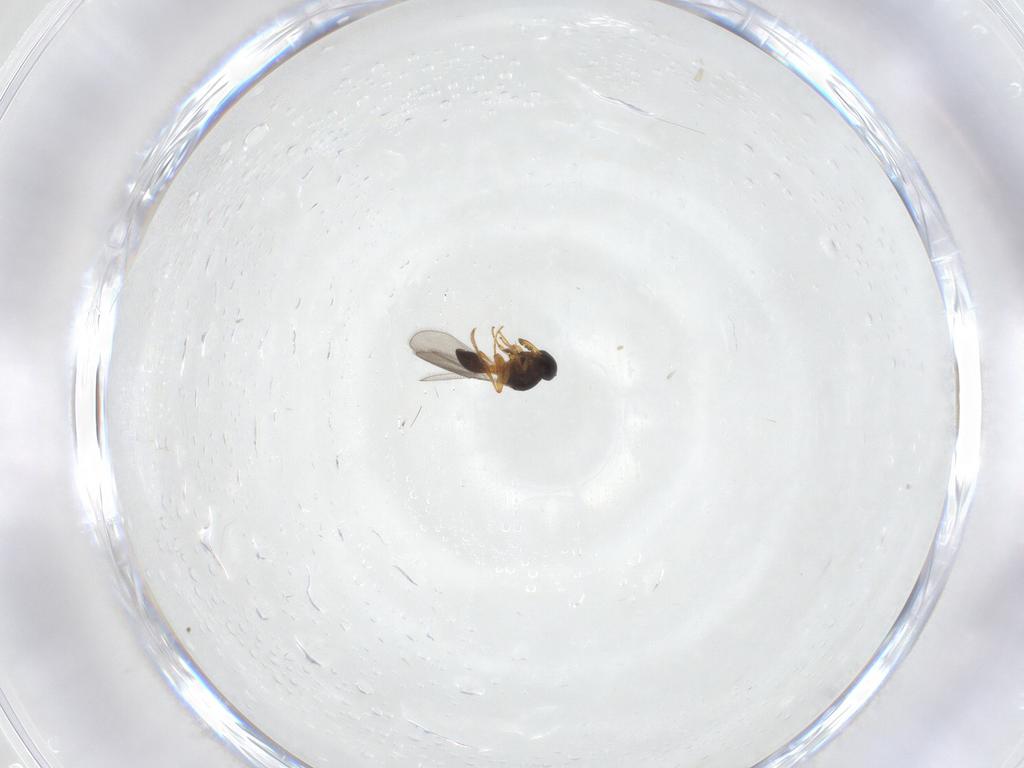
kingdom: Animalia
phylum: Arthropoda
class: Insecta
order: Hymenoptera
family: Platygastridae
